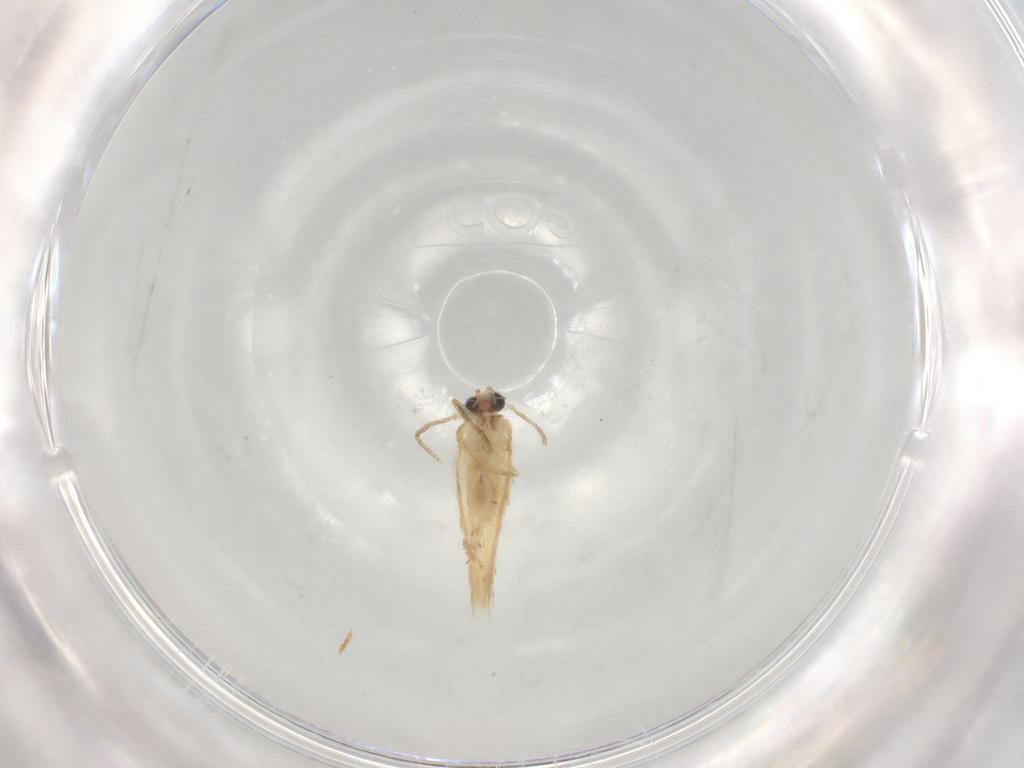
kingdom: Animalia
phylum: Arthropoda
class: Insecta
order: Lepidoptera
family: Nepticulidae
